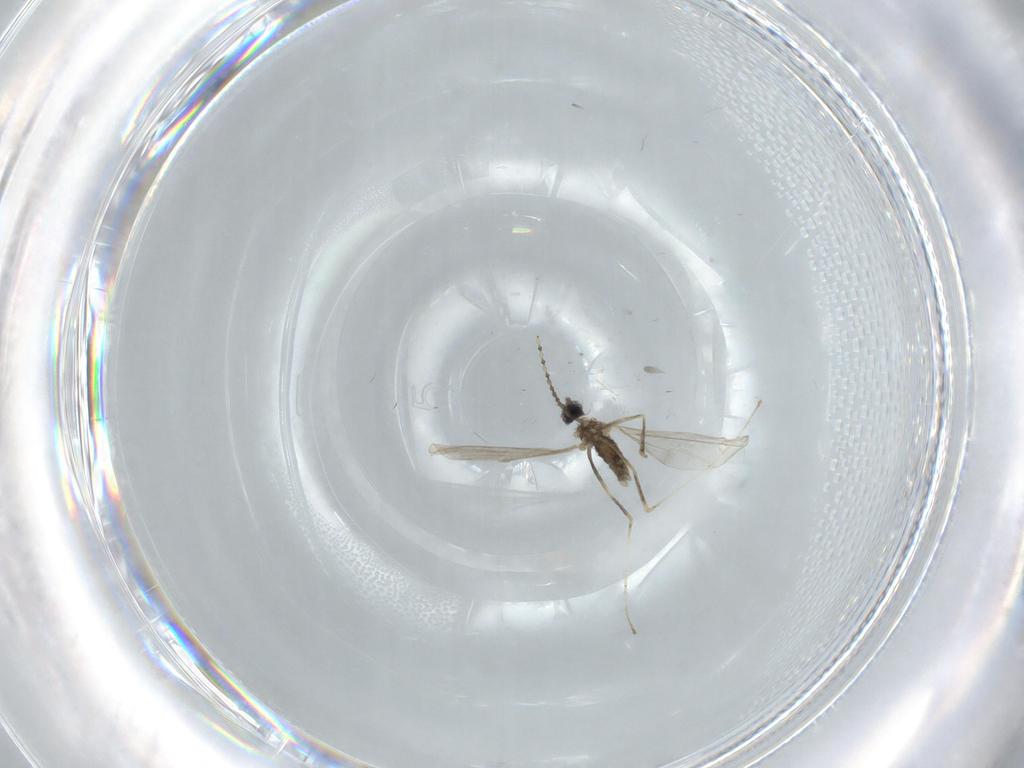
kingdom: Animalia
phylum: Arthropoda
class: Insecta
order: Diptera
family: Cecidomyiidae
